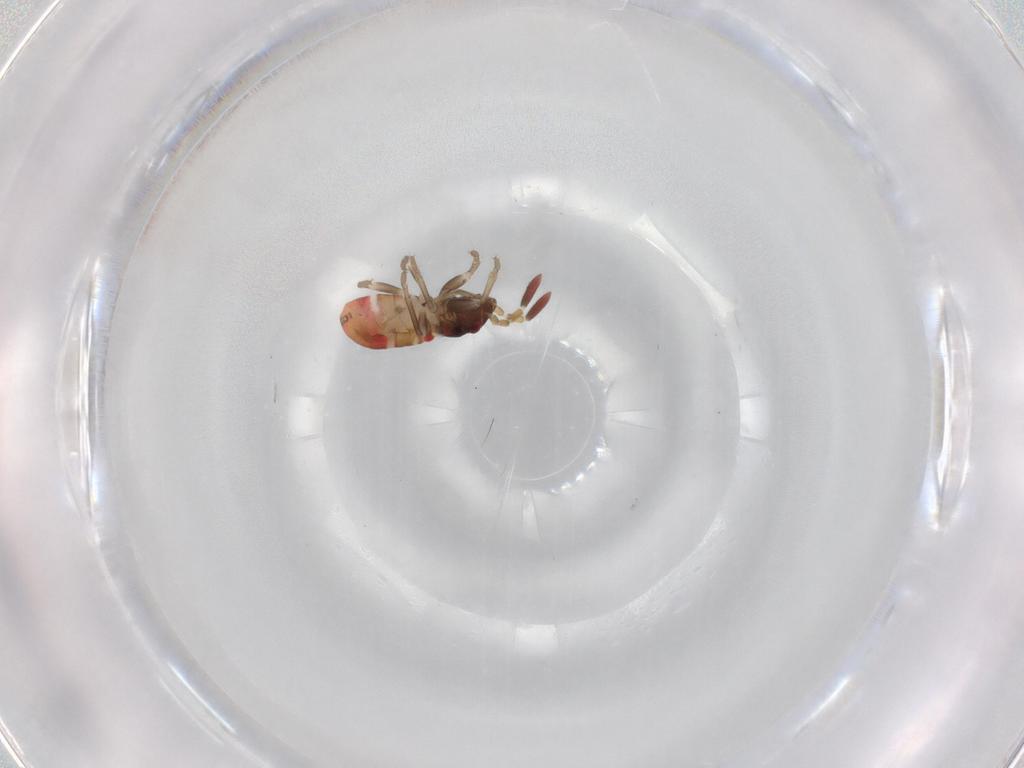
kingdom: Animalia
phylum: Arthropoda
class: Insecta
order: Hemiptera
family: Rhyparochromidae
